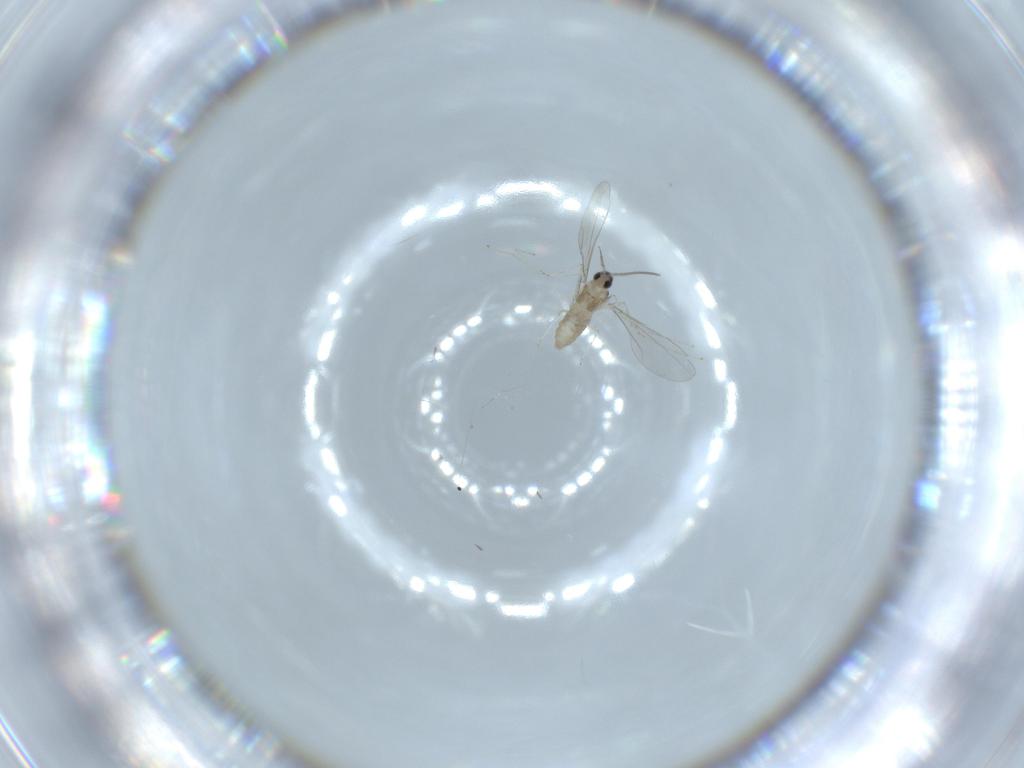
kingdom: Animalia
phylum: Arthropoda
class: Insecta
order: Diptera
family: Cecidomyiidae
